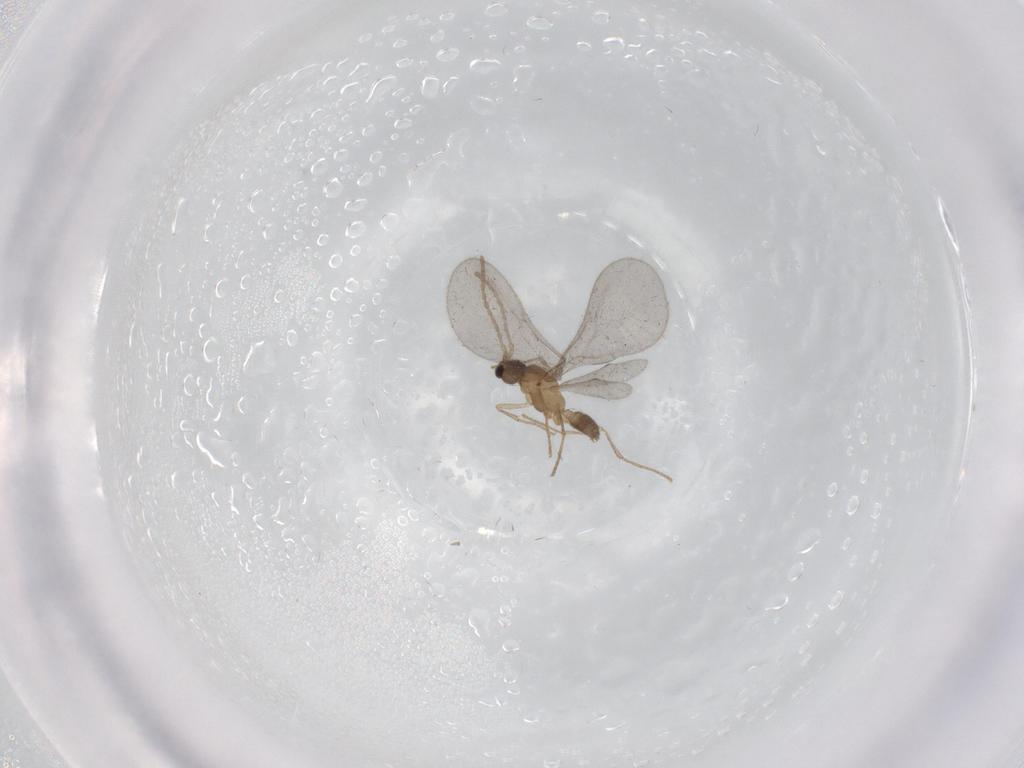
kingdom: Animalia
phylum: Arthropoda
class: Insecta
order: Hymenoptera
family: Formicidae
